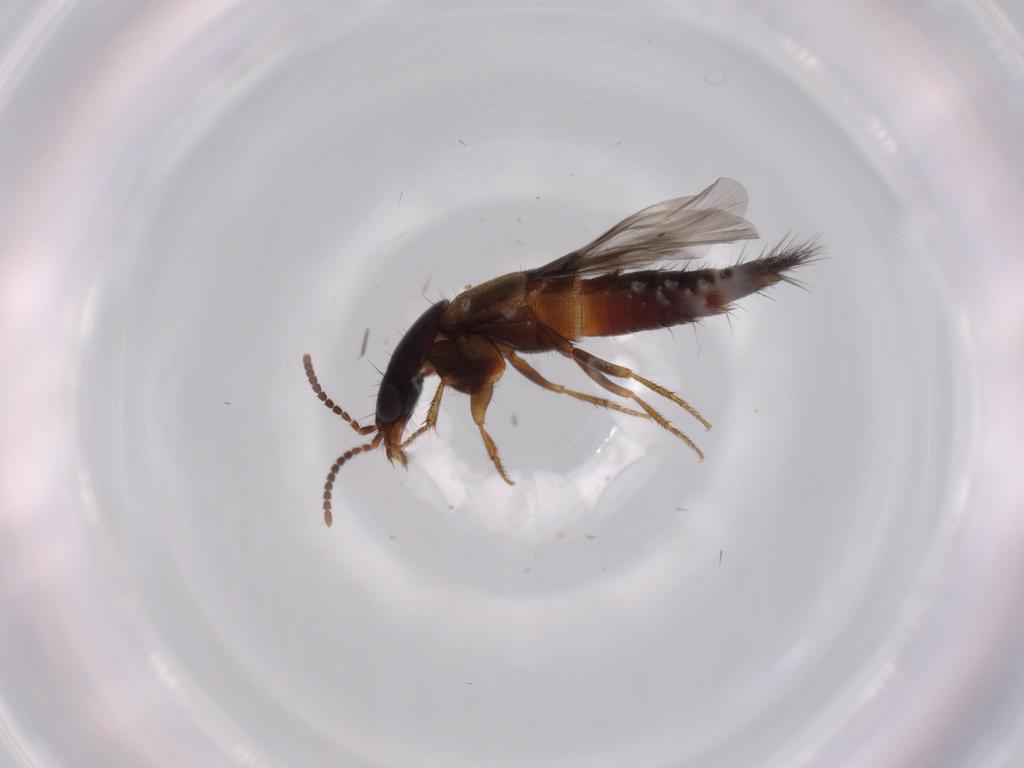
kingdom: Animalia
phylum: Arthropoda
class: Insecta
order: Coleoptera
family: Staphylinidae
